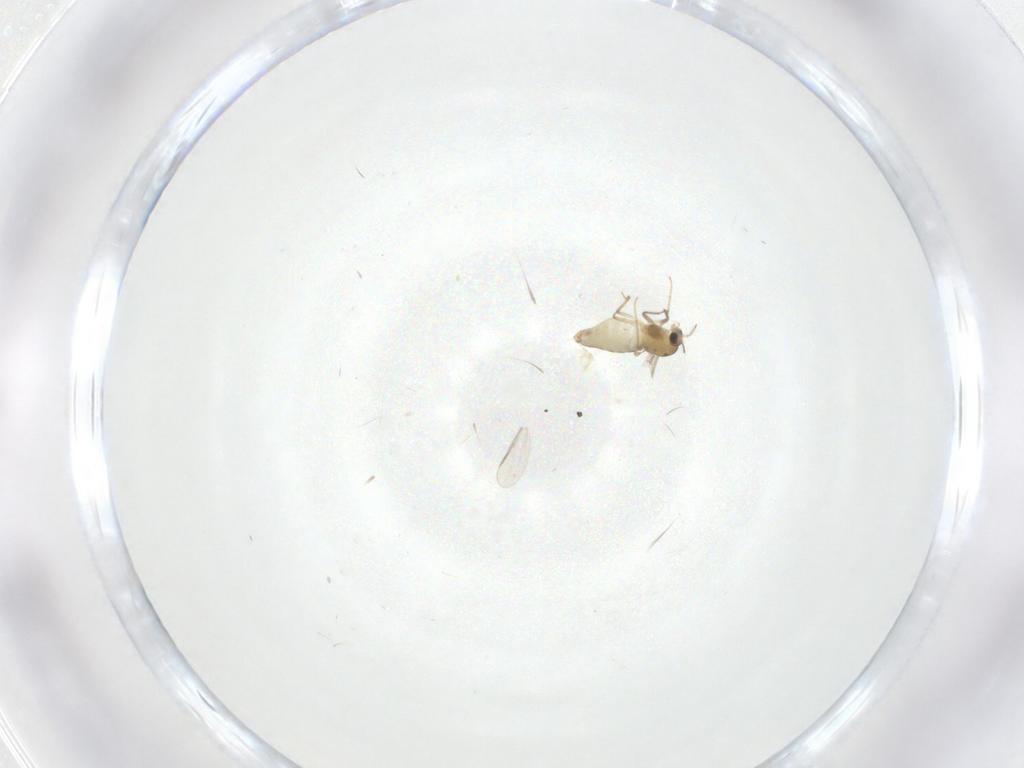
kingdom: Animalia
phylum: Arthropoda
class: Insecta
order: Diptera
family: Chironomidae
